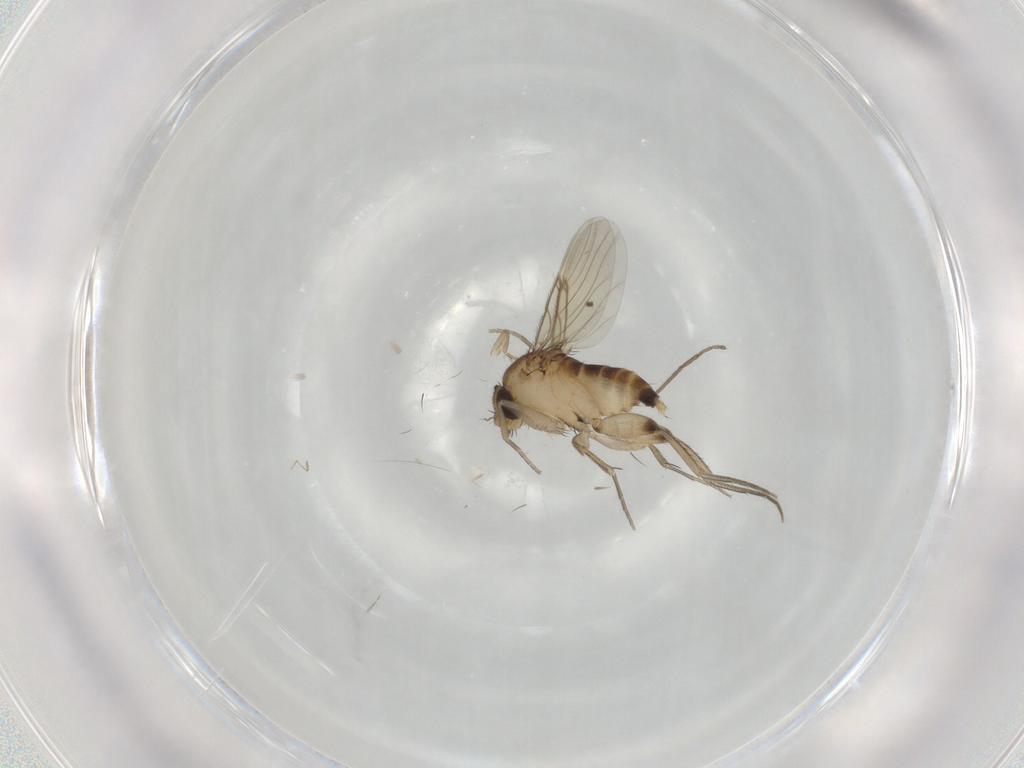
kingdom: Animalia
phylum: Arthropoda
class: Insecta
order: Diptera
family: Phoridae
